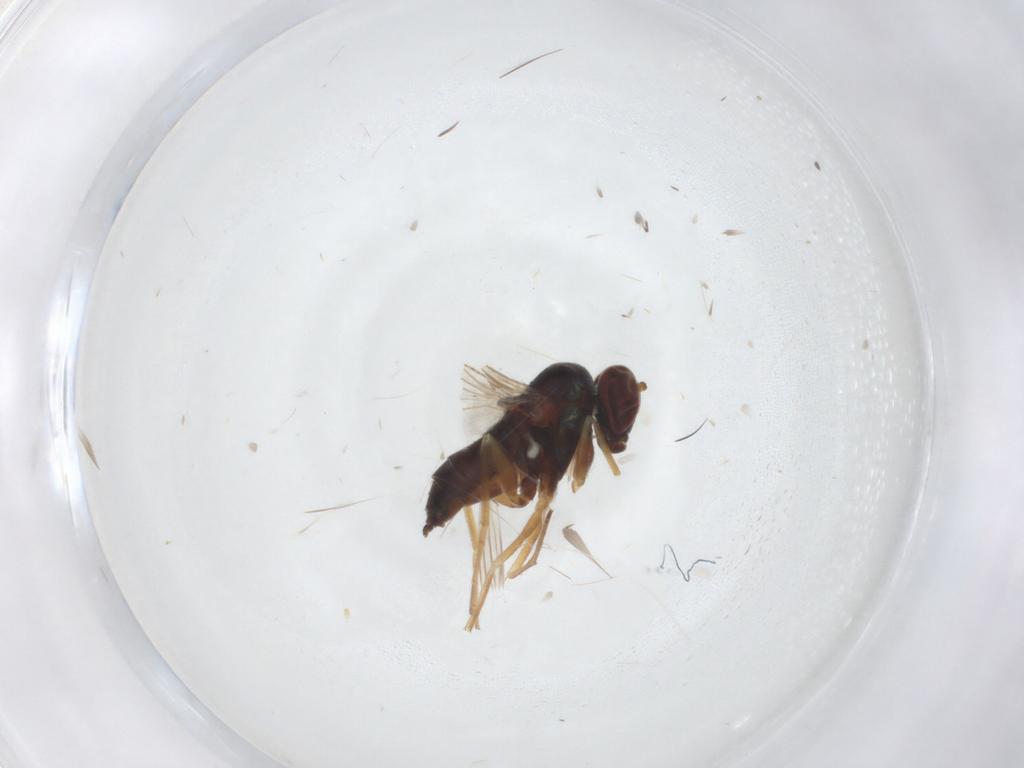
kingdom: Animalia
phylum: Arthropoda
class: Insecta
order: Diptera
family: Dolichopodidae
